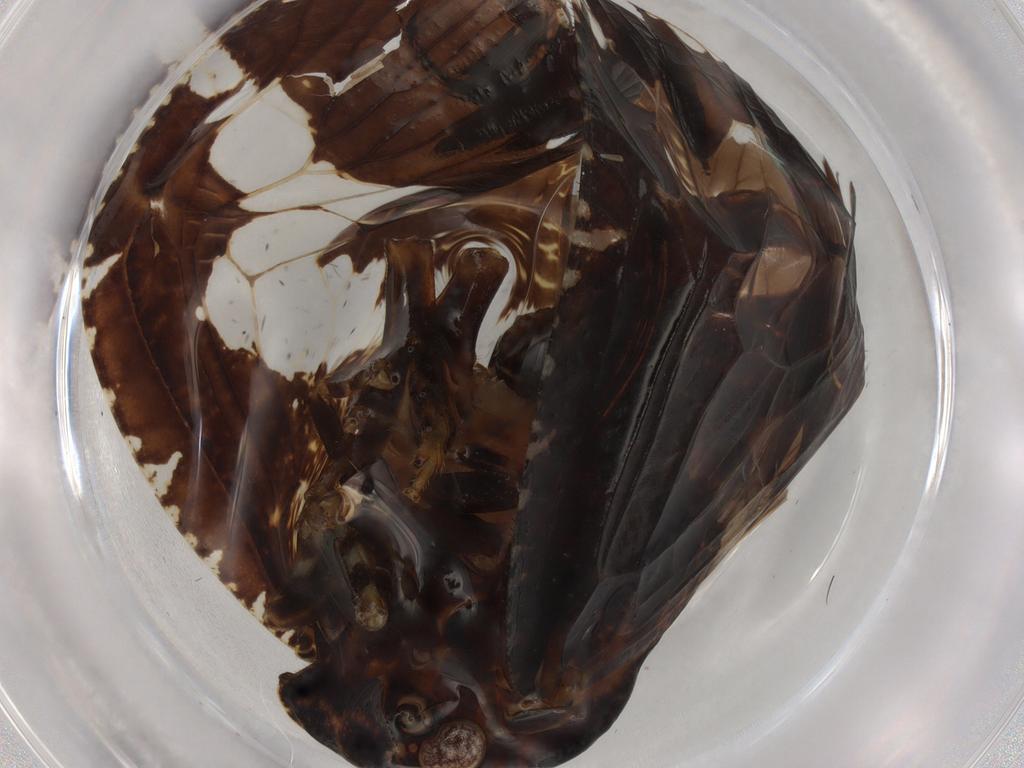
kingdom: Animalia
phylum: Arthropoda
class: Insecta
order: Hemiptera
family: Ricaniidae
